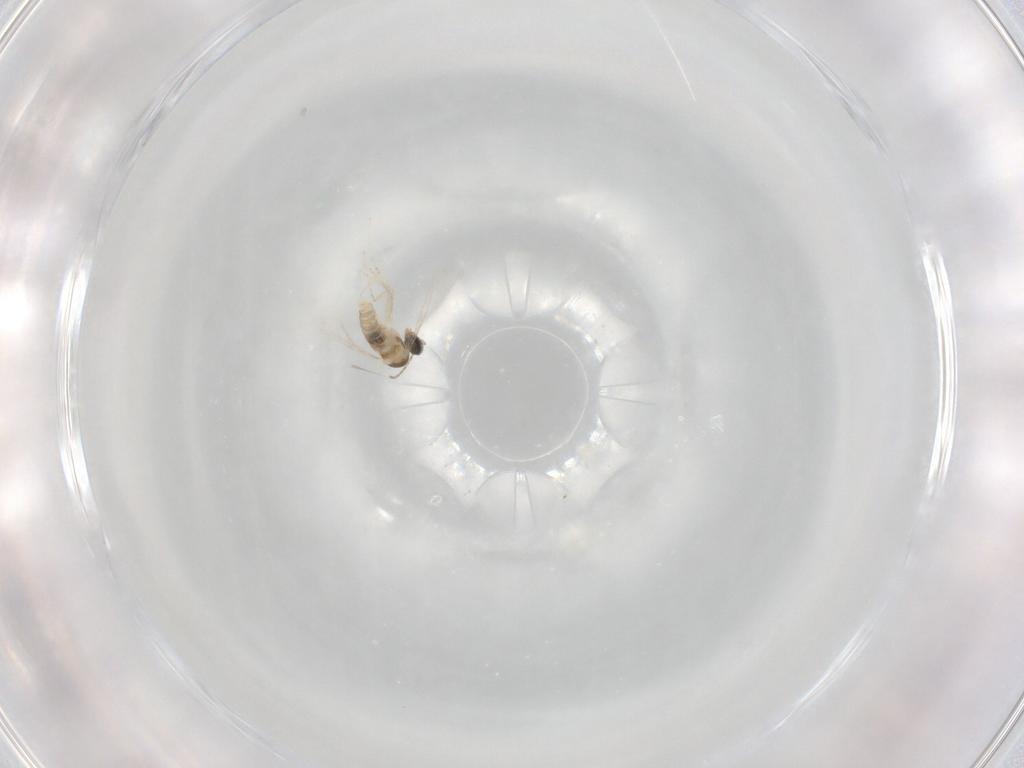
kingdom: Animalia
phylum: Arthropoda
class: Insecta
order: Diptera
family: Cecidomyiidae
